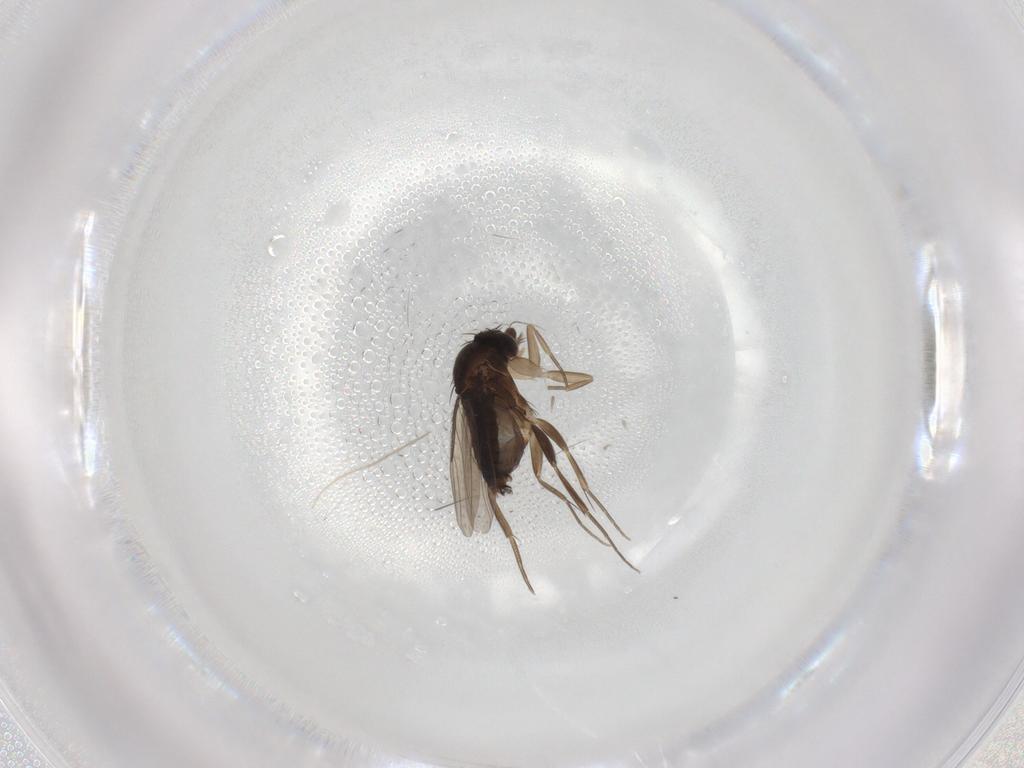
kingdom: Animalia
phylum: Arthropoda
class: Insecta
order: Diptera
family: Phoridae
